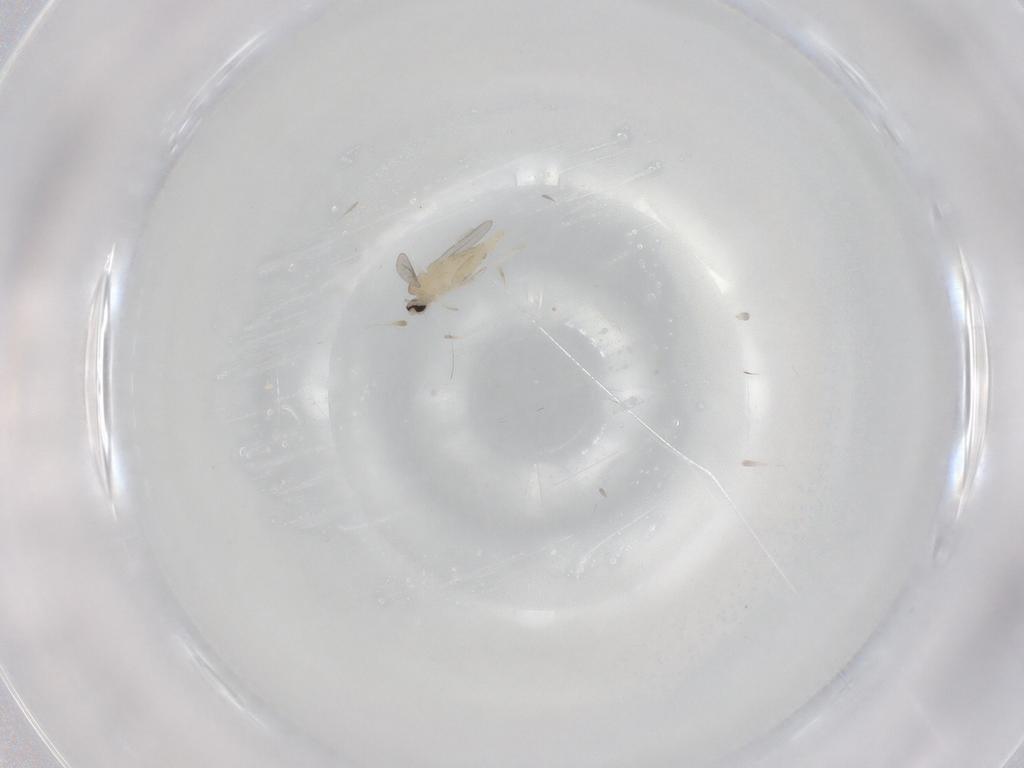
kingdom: Animalia
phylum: Arthropoda
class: Insecta
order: Diptera
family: Cecidomyiidae
